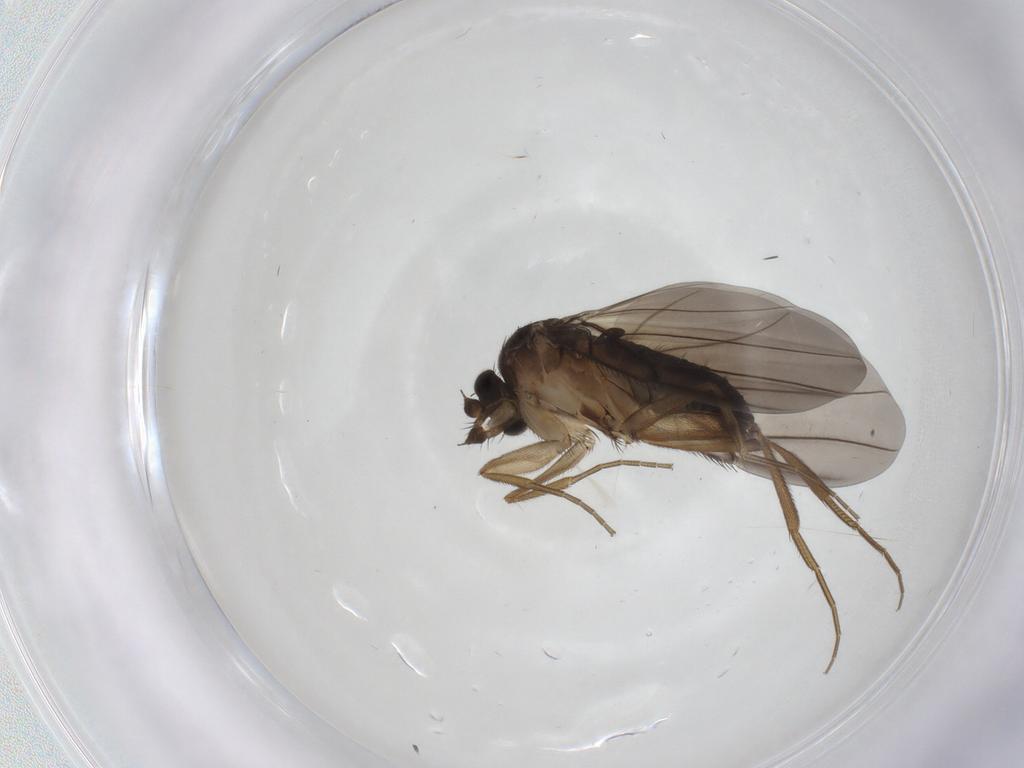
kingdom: Animalia
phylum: Arthropoda
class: Insecta
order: Diptera
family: Phoridae
